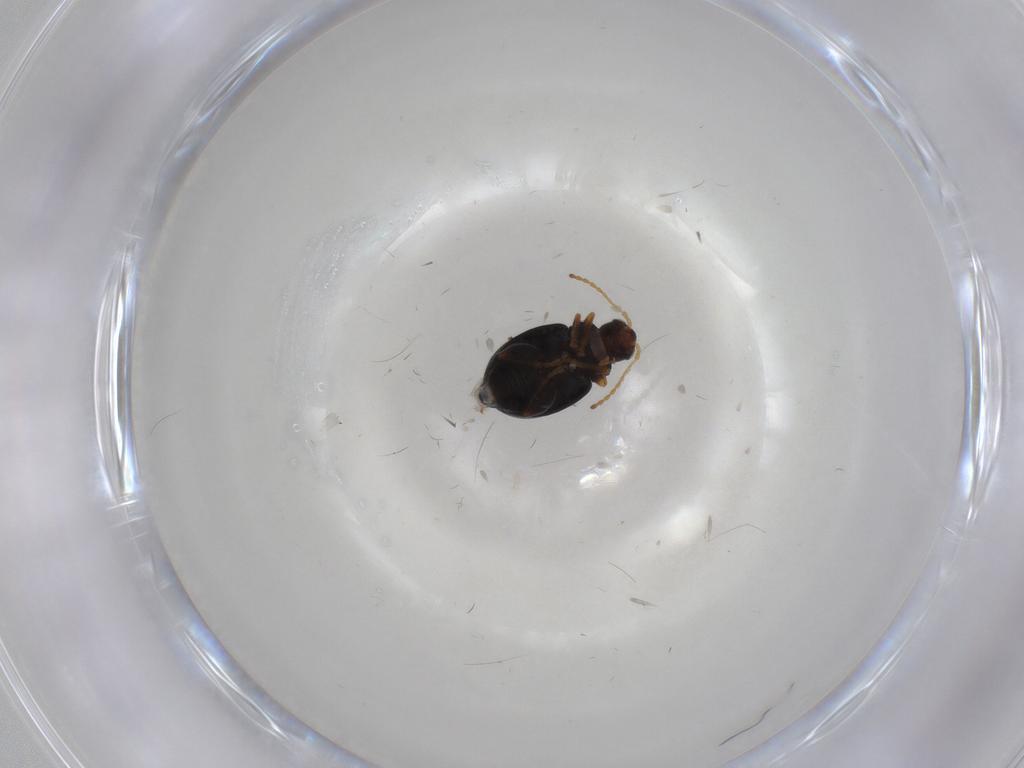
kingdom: Animalia
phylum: Arthropoda
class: Insecta
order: Coleoptera
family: Chrysomelidae
